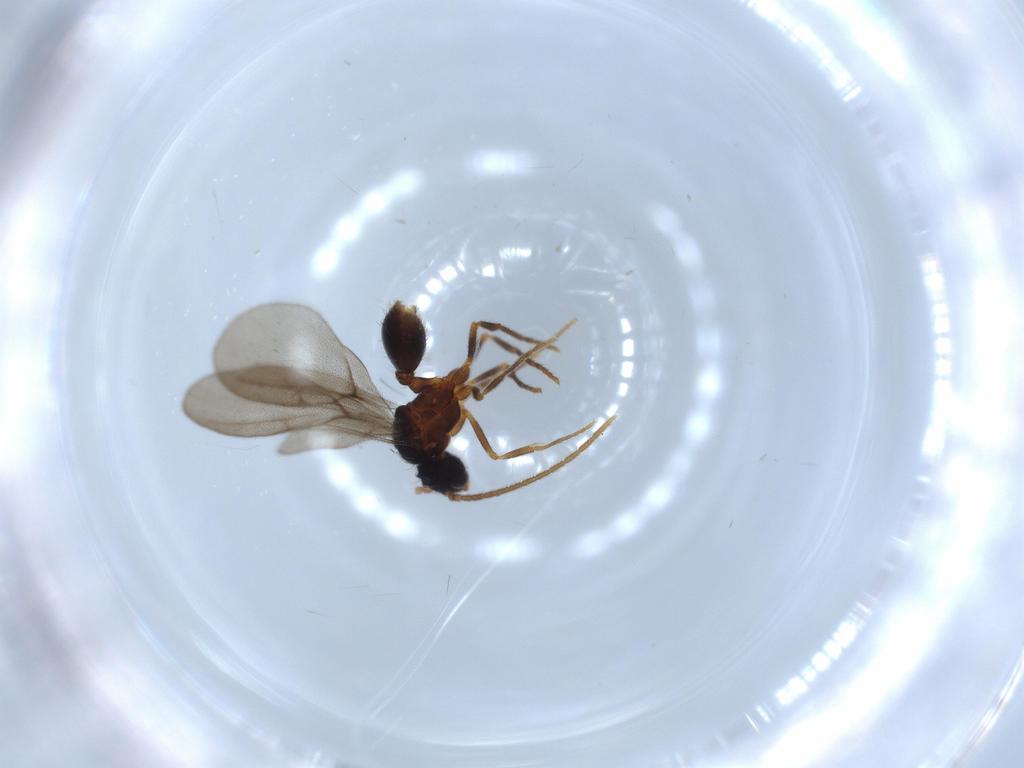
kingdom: Animalia
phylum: Arthropoda
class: Insecta
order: Hymenoptera
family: Formicidae
